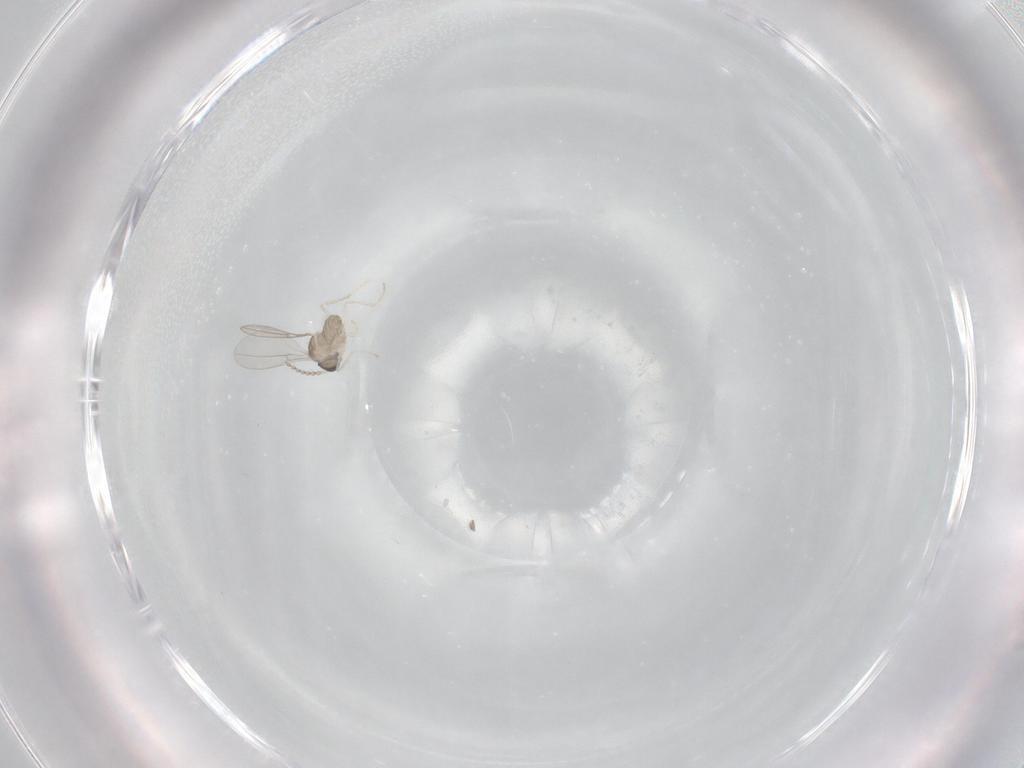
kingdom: Animalia
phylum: Arthropoda
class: Insecta
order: Diptera
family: Cecidomyiidae
